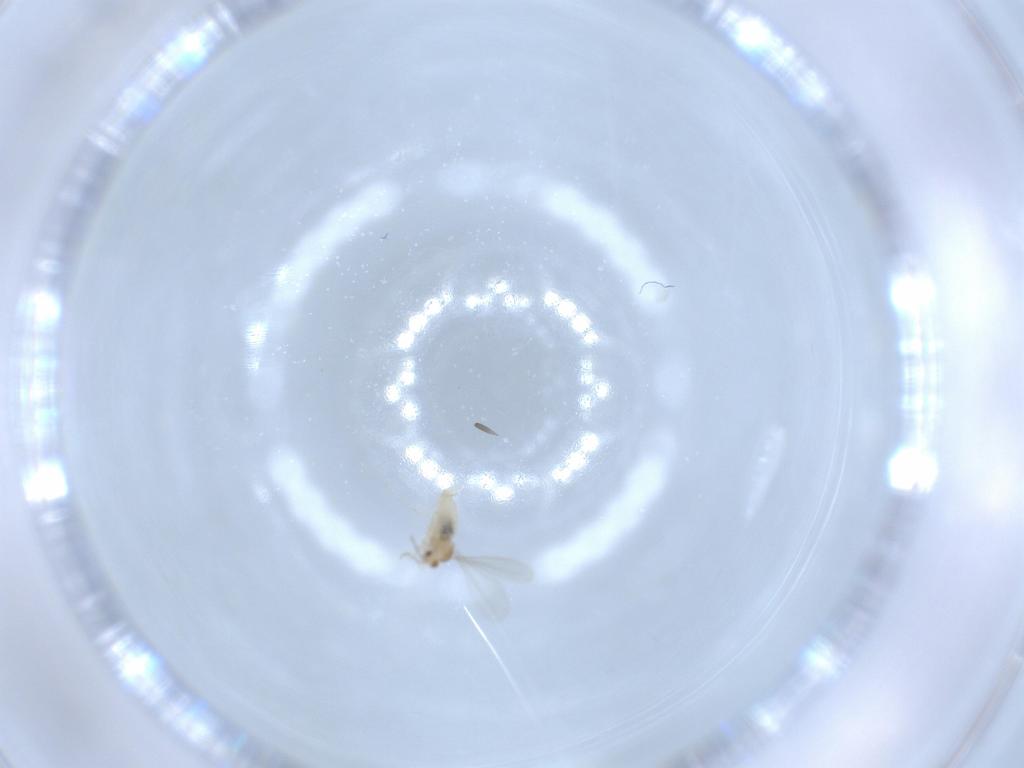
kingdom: Animalia
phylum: Arthropoda
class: Insecta
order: Diptera
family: Cecidomyiidae
